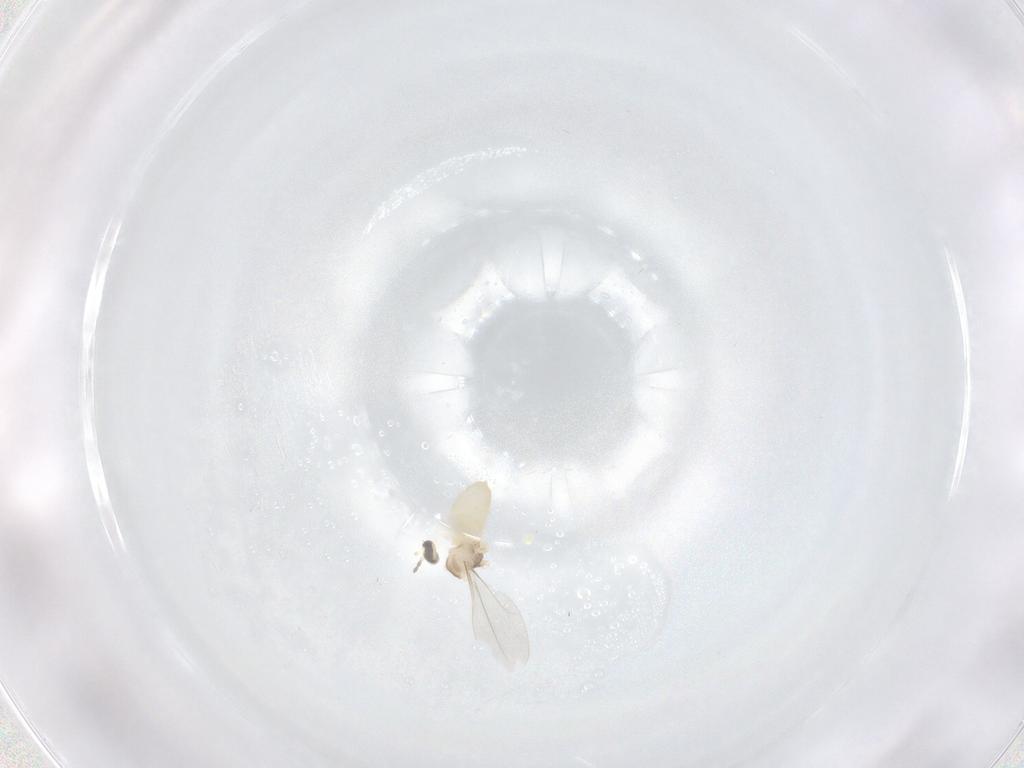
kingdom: Animalia
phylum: Arthropoda
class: Insecta
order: Diptera
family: Cecidomyiidae
